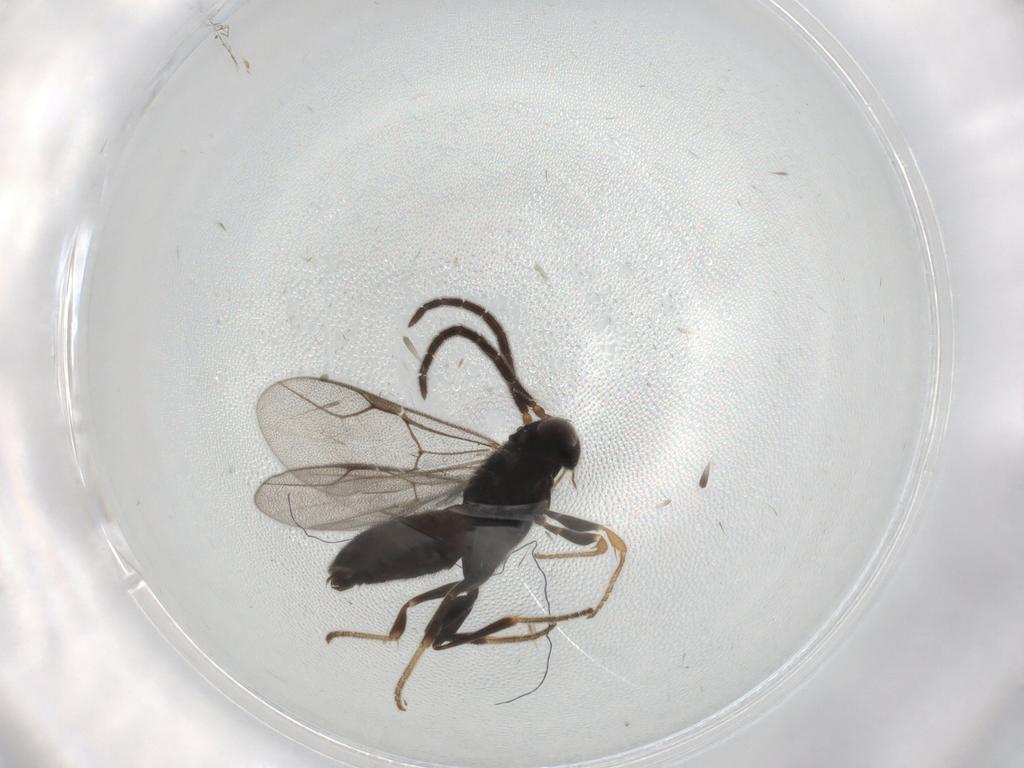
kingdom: Animalia
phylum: Arthropoda
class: Insecta
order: Hymenoptera
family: Dryinidae
